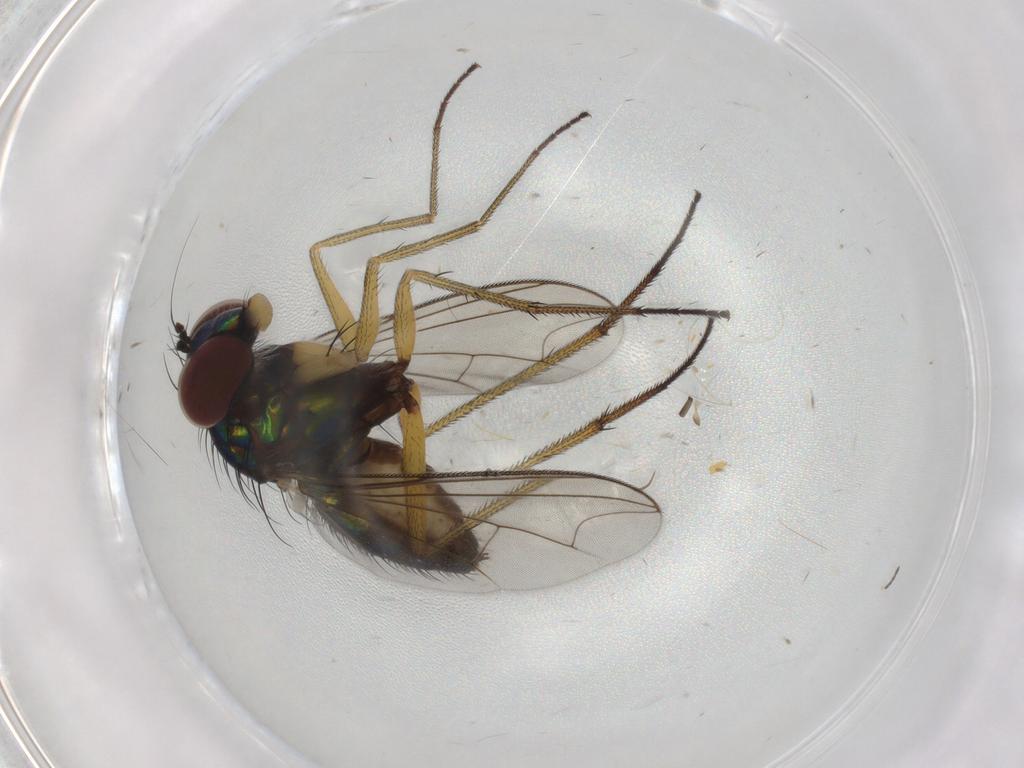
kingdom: Animalia
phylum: Arthropoda
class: Insecta
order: Diptera
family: Dolichopodidae
